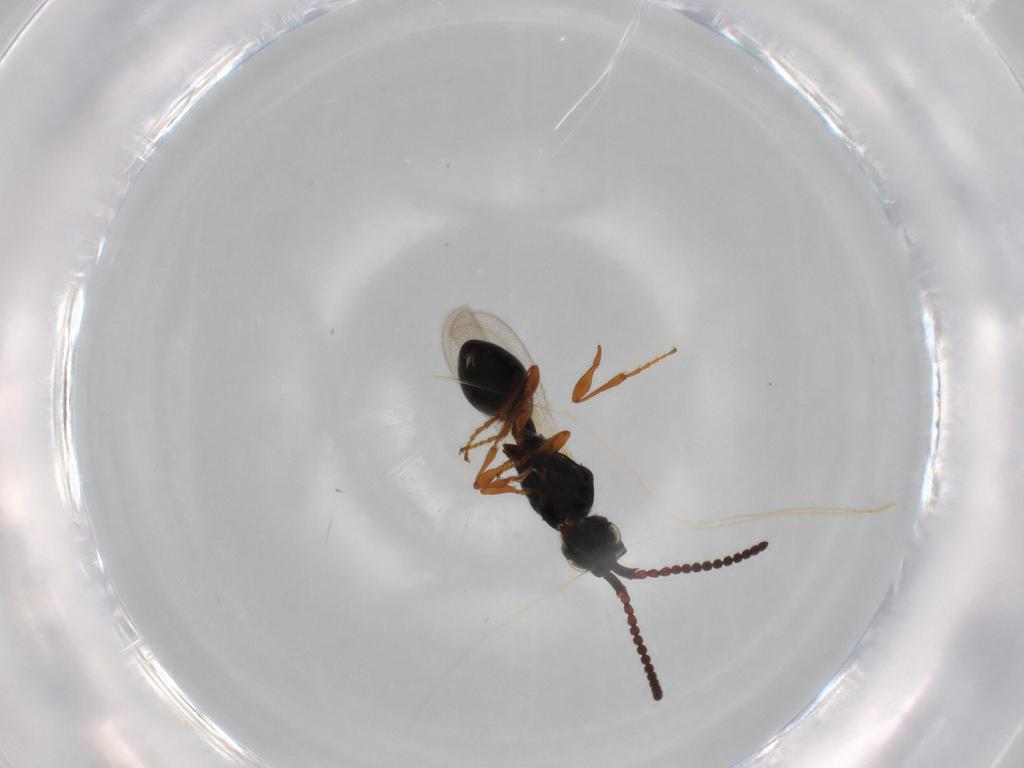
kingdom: Animalia
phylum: Arthropoda
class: Insecta
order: Hymenoptera
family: Diapriidae
